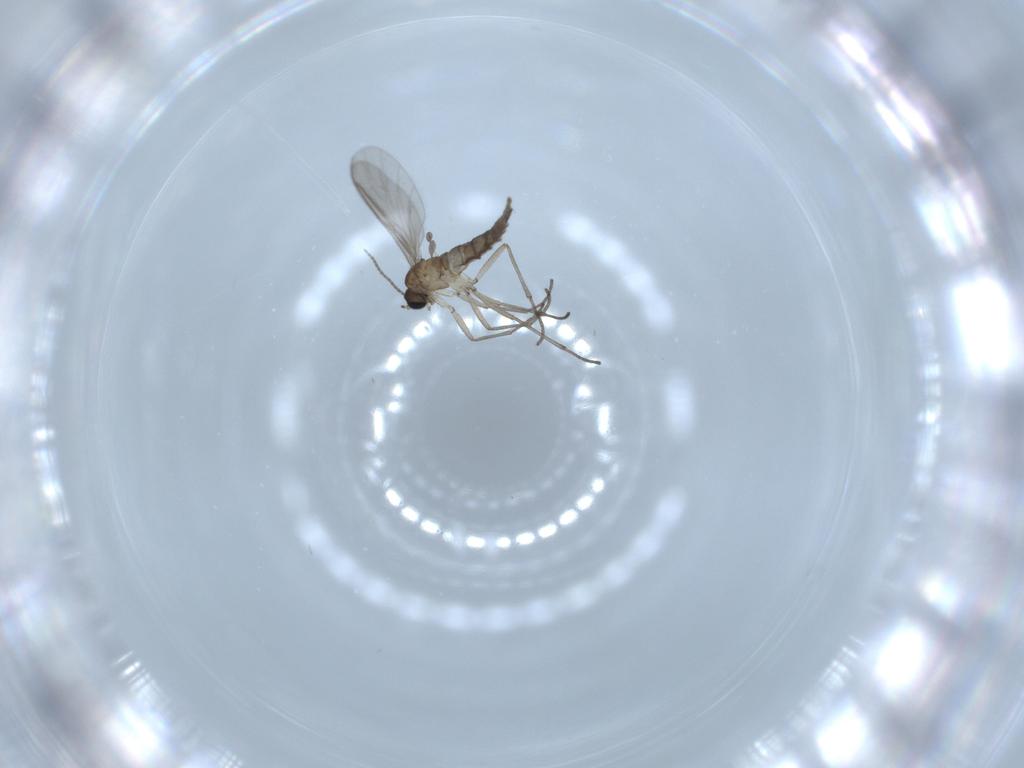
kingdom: Animalia
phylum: Arthropoda
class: Insecta
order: Diptera
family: Sciaridae
